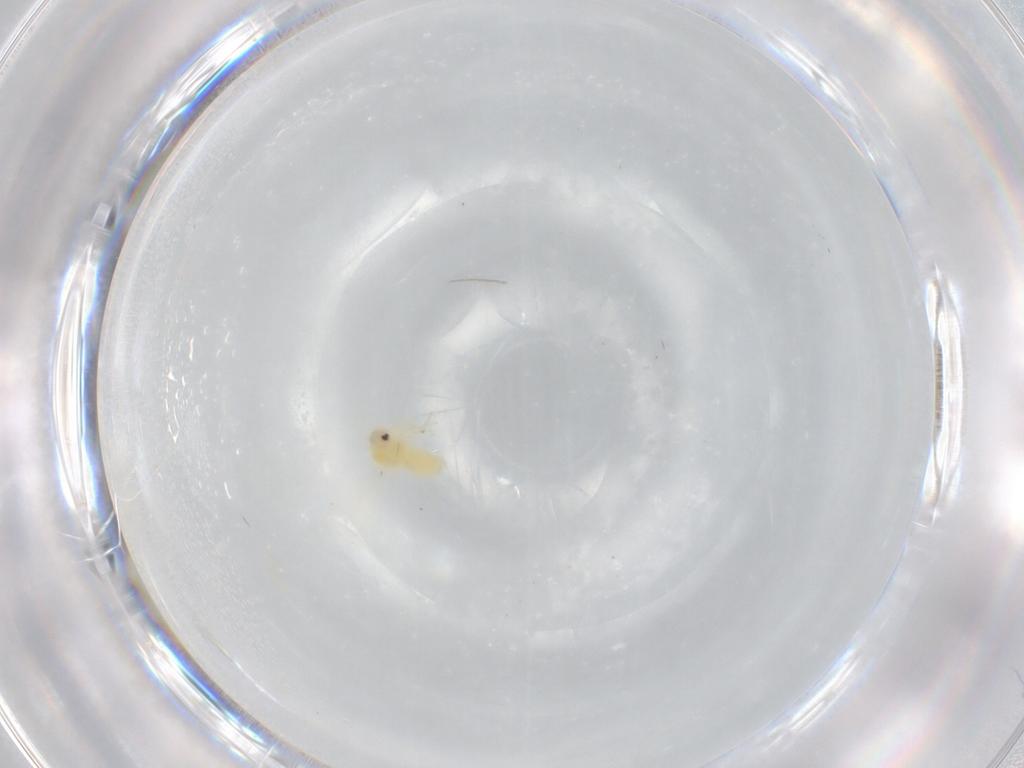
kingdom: Animalia
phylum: Arthropoda
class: Insecta
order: Hemiptera
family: Aleyrodidae
